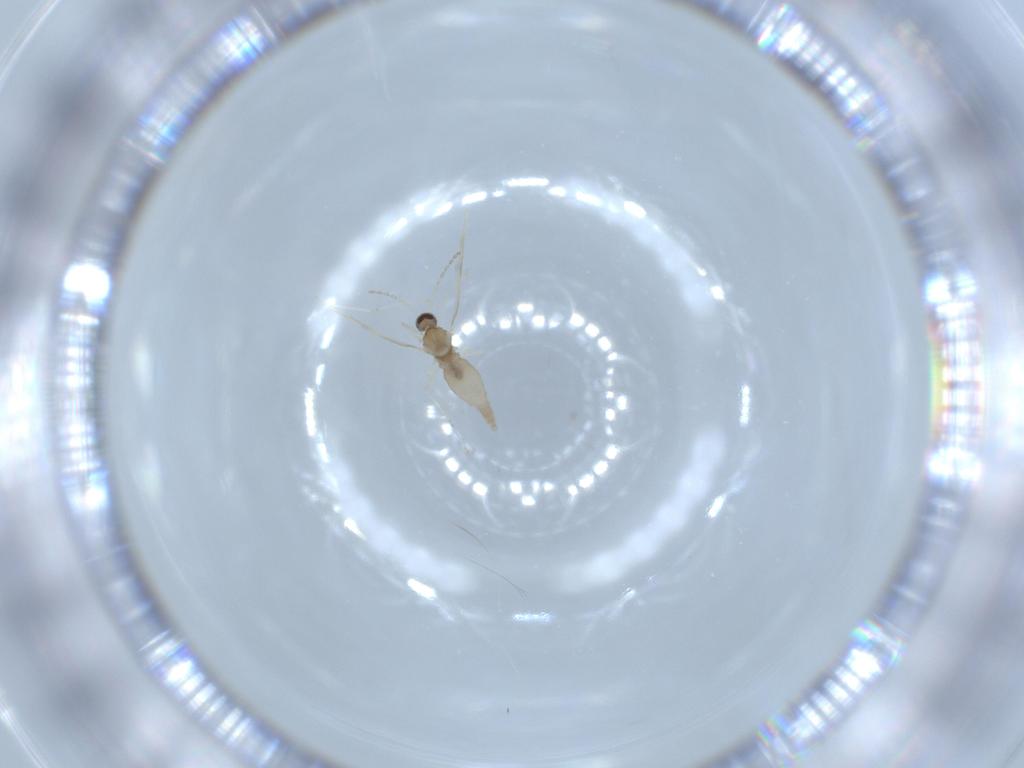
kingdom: Animalia
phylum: Arthropoda
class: Insecta
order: Diptera
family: Cecidomyiidae
